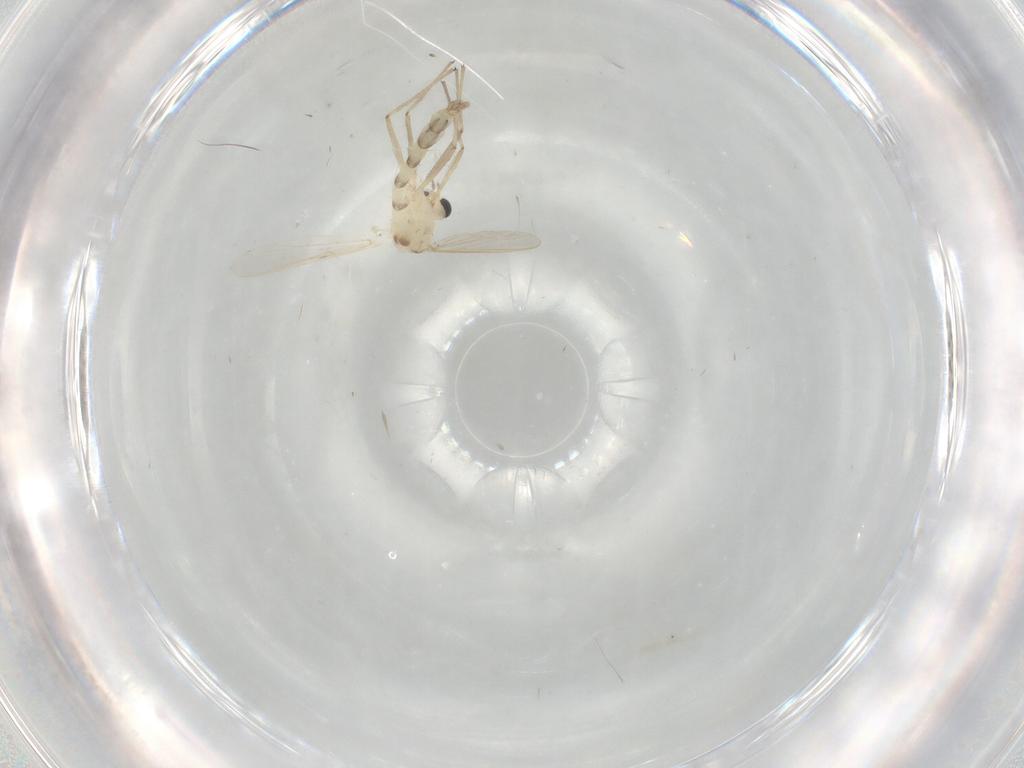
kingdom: Animalia
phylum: Arthropoda
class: Insecta
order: Diptera
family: Chironomidae
